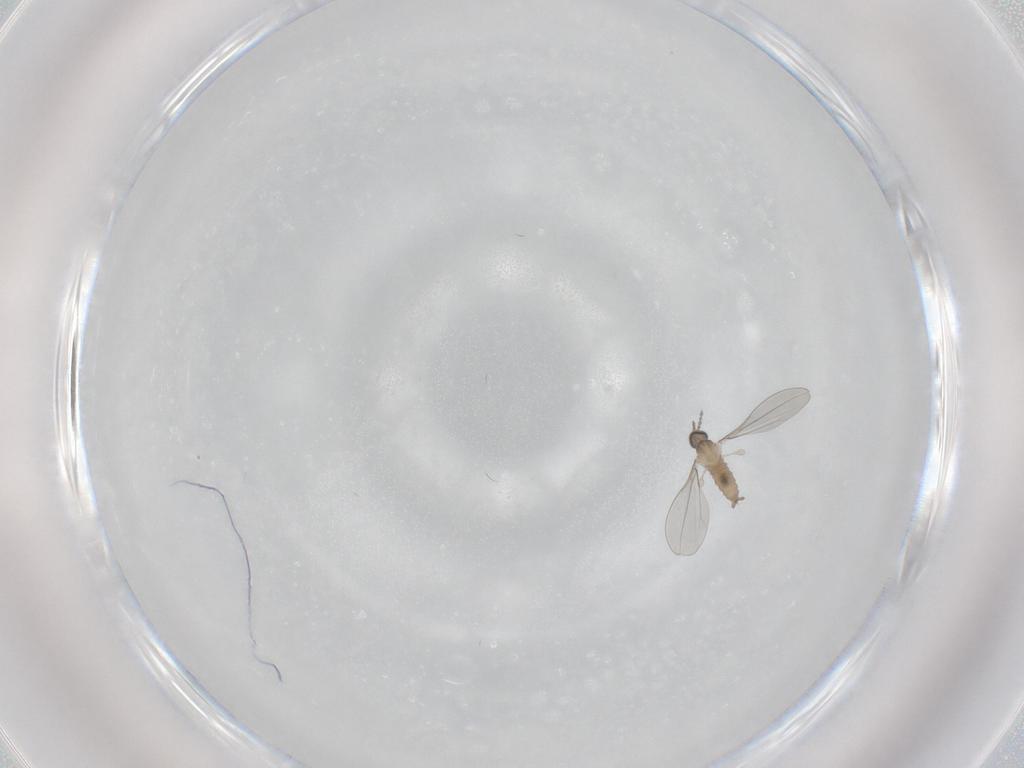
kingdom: Animalia
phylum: Arthropoda
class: Insecta
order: Diptera
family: Cecidomyiidae
